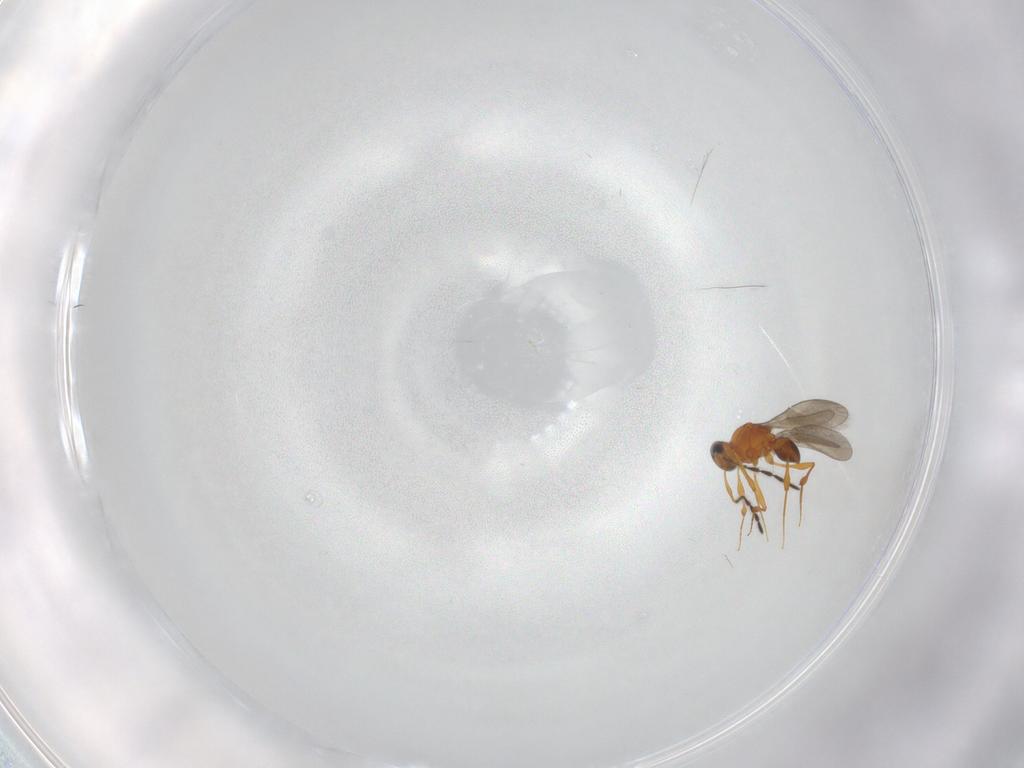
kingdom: Animalia
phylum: Arthropoda
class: Insecta
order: Hymenoptera
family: Platygastridae
